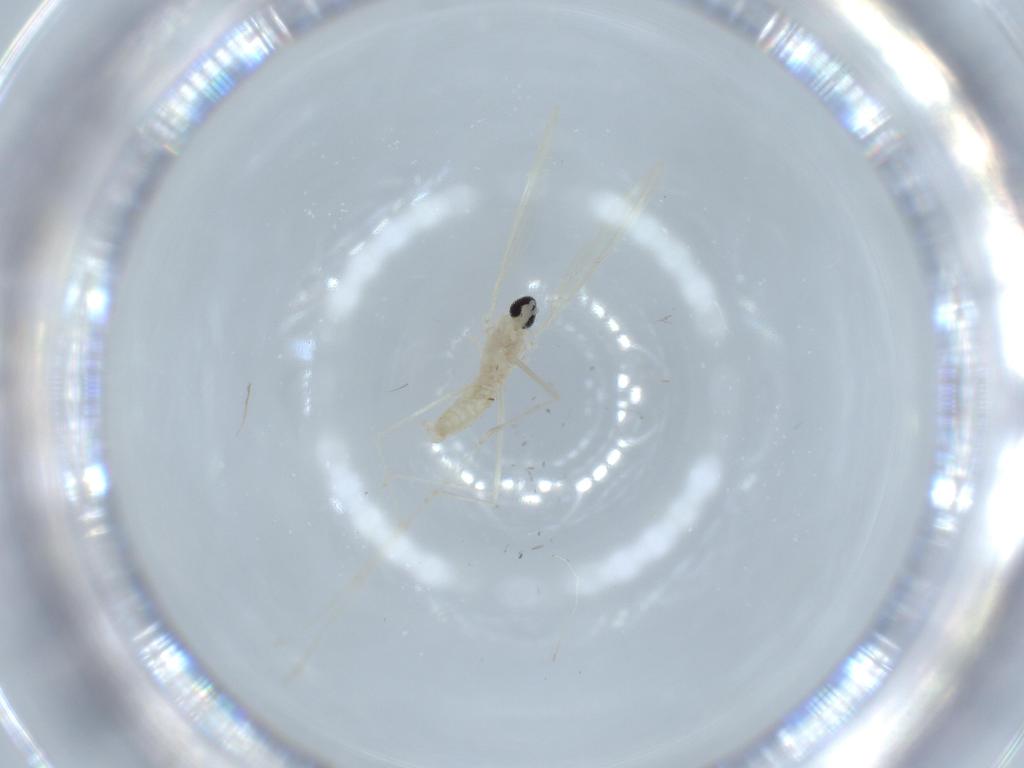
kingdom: Animalia
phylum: Arthropoda
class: Insecta
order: Diptera
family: Cecidomyiidae
